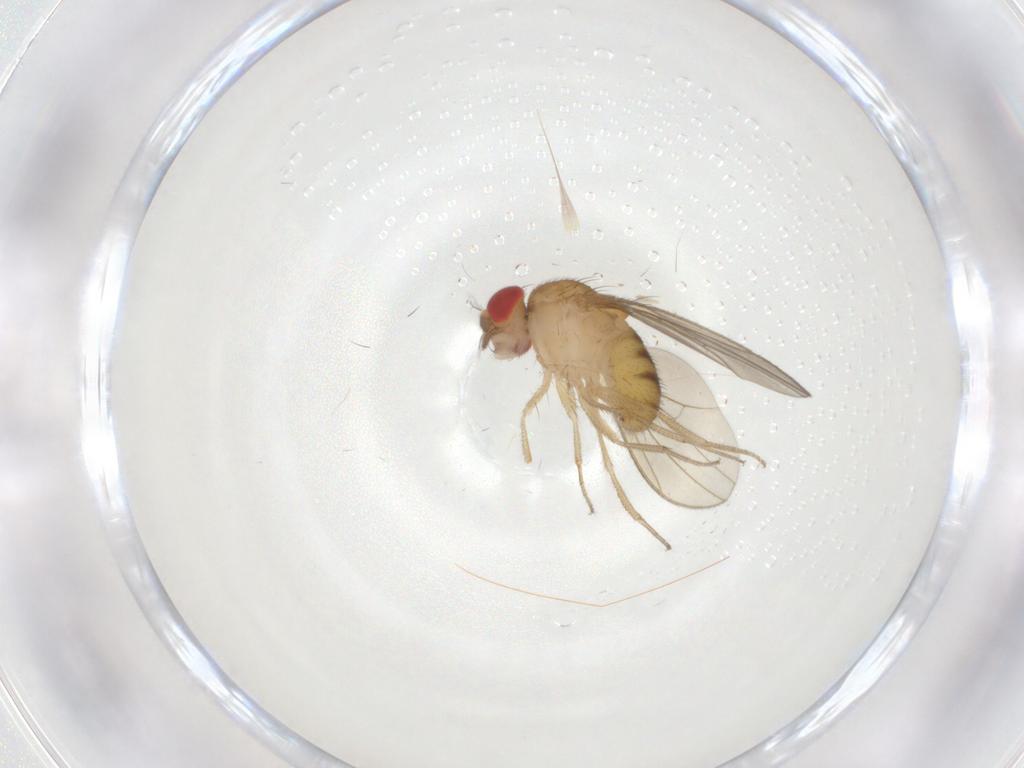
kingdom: Animalia
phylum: Arthropoda
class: Insecta
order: Diptera
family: Drosophilidae
